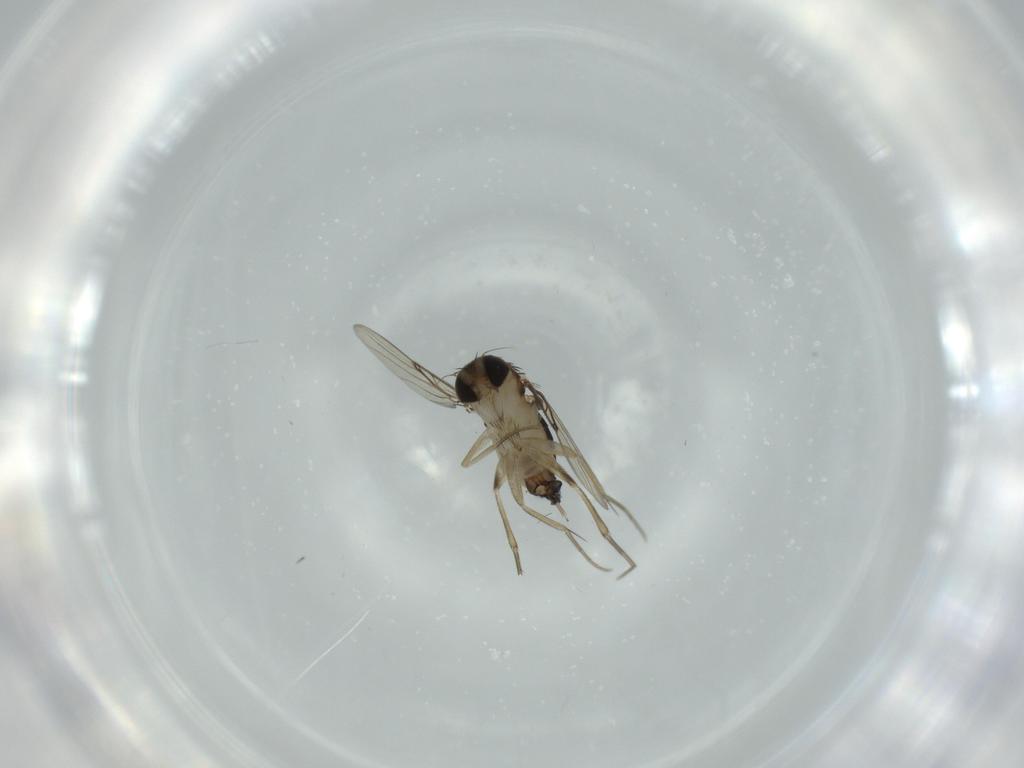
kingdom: Animalia
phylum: Arthropoda
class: Insecta
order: Diptera
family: Phoridae
